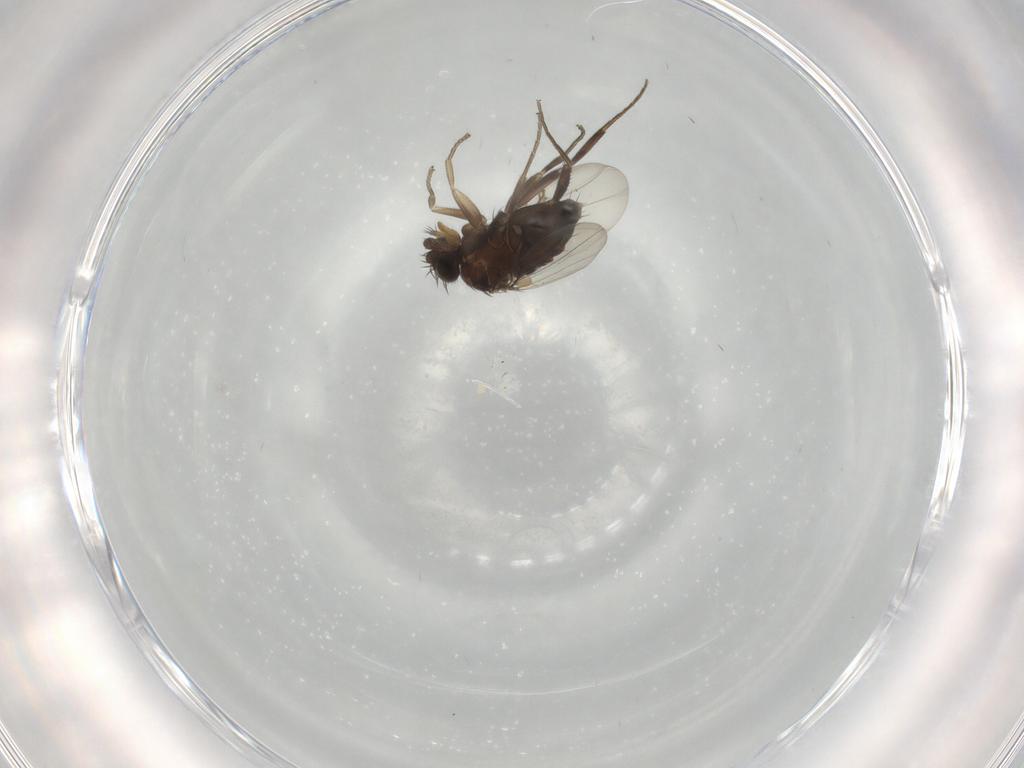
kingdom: Animalia
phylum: Arthropoda
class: Insecta
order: Diptera
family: Phoridae
